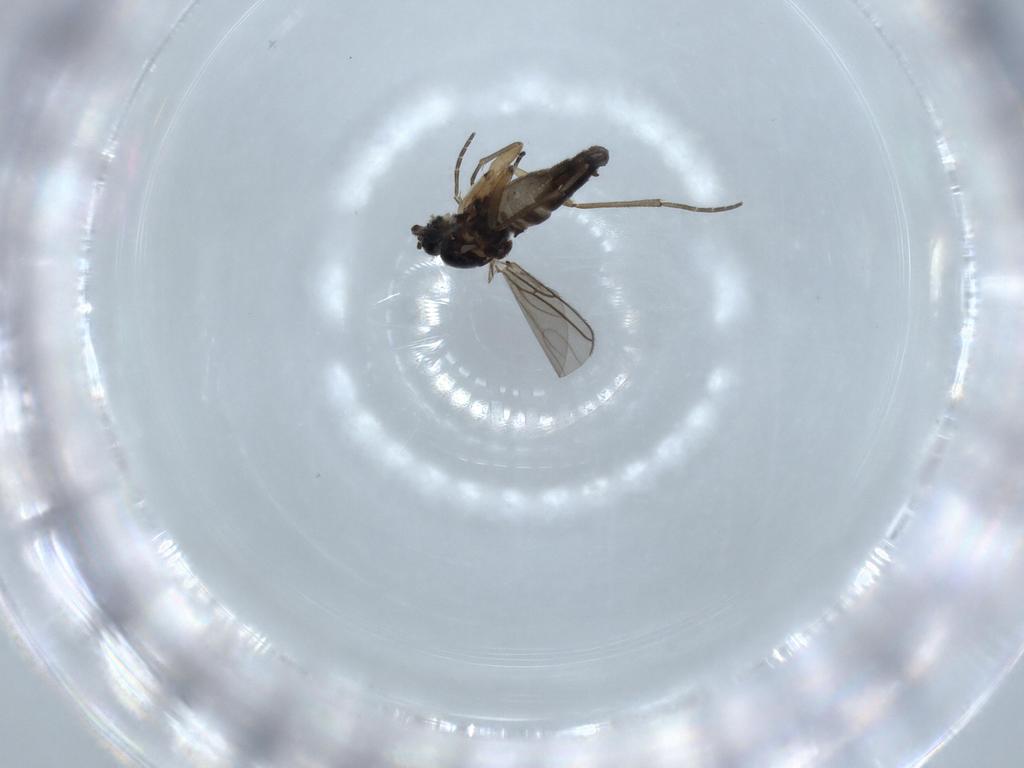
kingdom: Animalia
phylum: Arthropoda
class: Insecta
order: Diptera
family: Sciaridae
